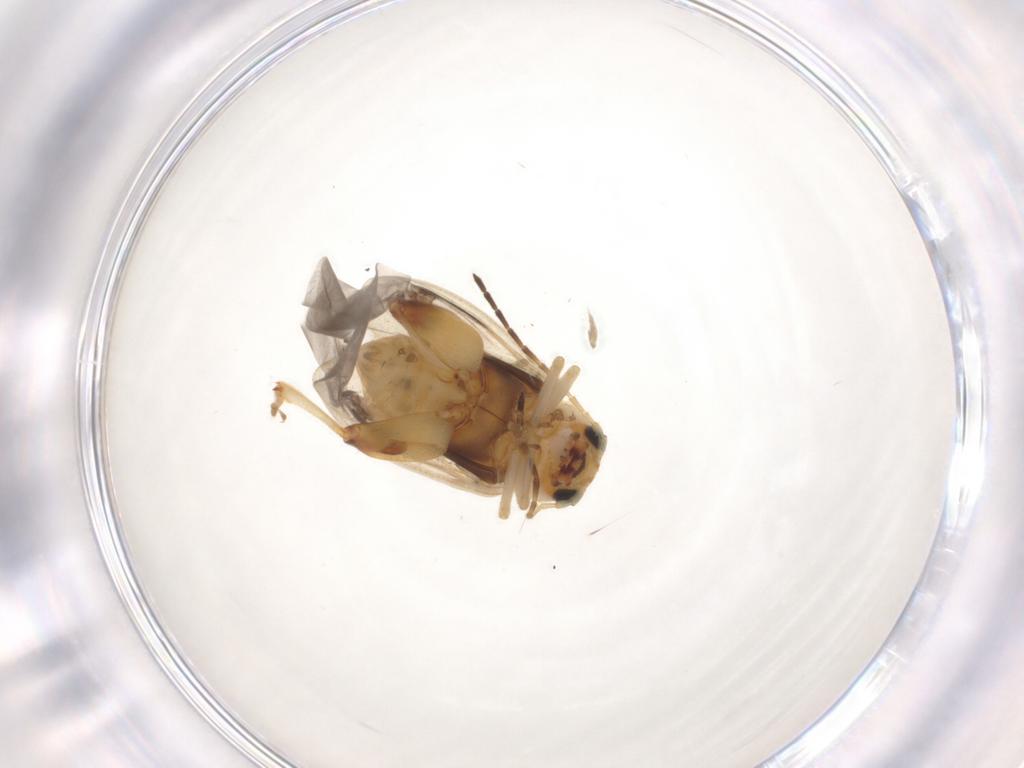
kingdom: Animalia
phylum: Arthropoda
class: Insecta
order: Coleoptera
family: Chrysomelidae
